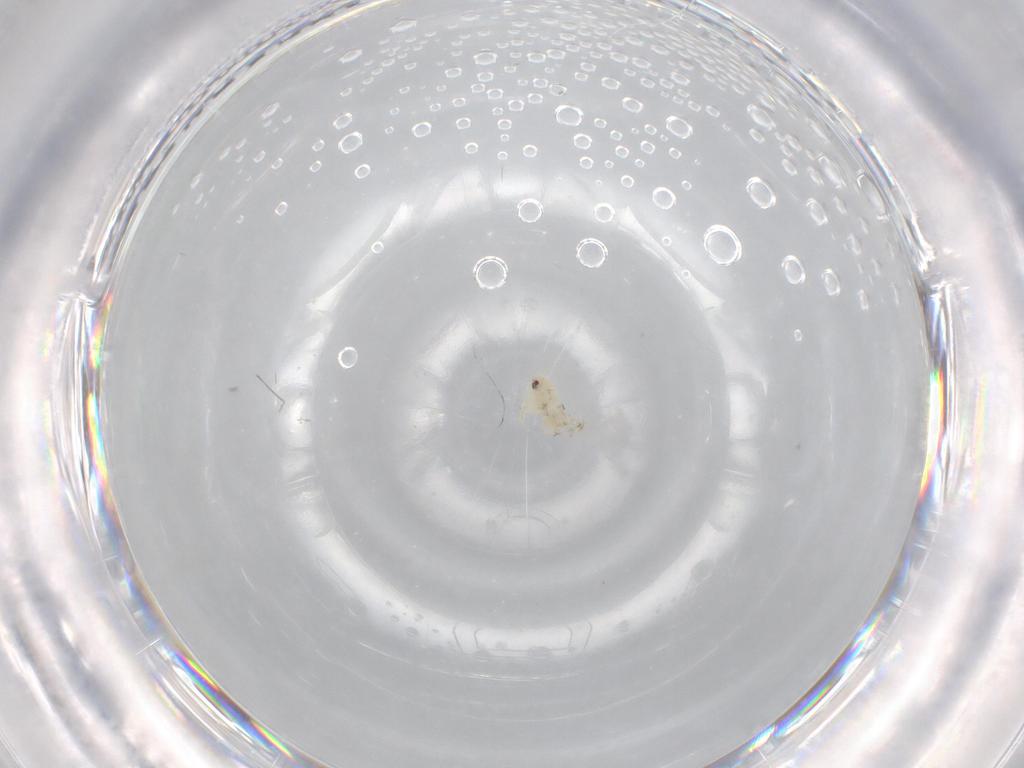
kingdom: Animalia
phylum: Arthropoda
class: Insecta
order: Hemiptera
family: Aleyrodidae
